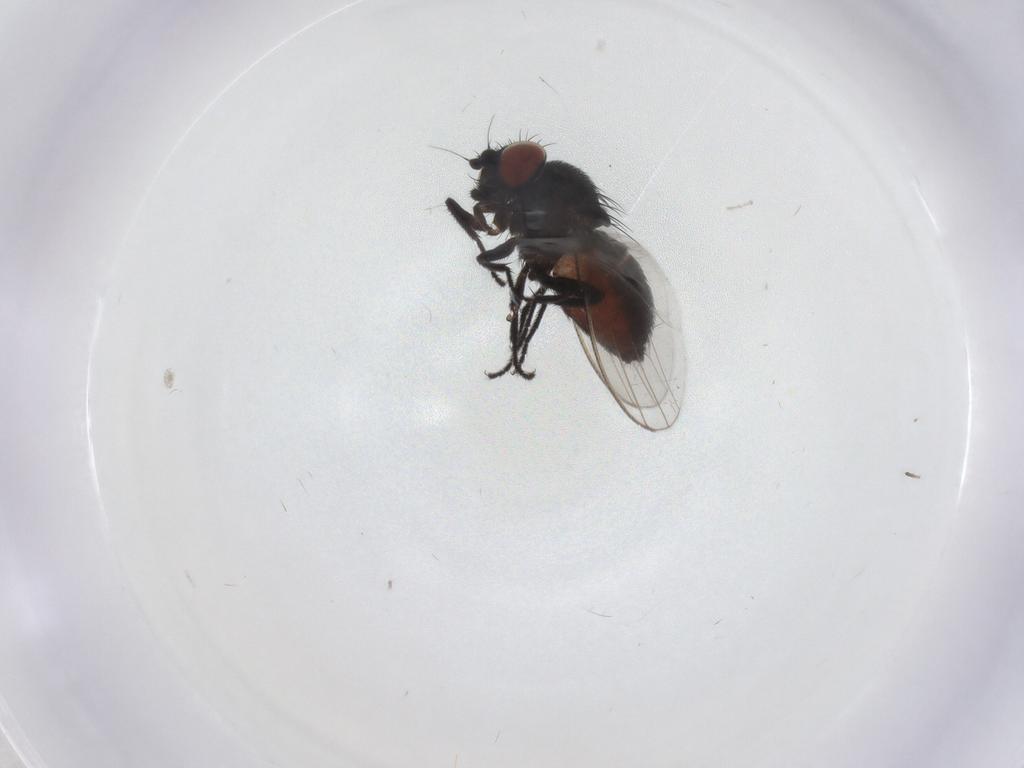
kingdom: Animalia
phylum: Arthropoda
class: Insecta
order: Diptera
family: Milichiidae
